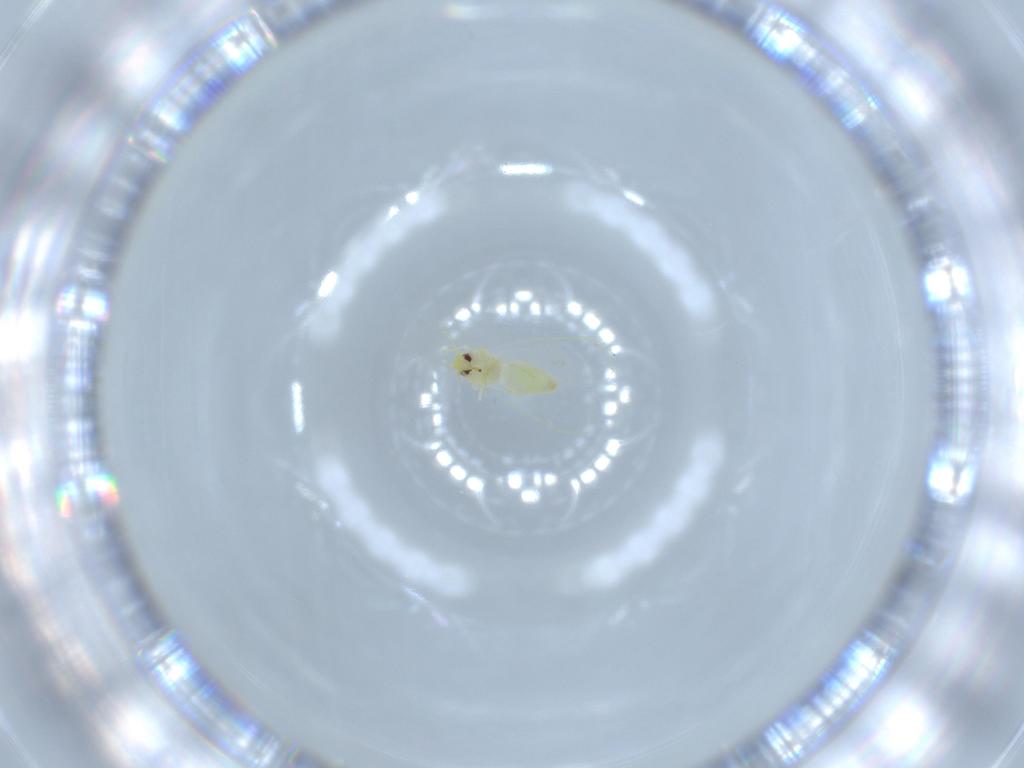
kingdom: Animalia
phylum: Arthropoda
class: Insecta
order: Hemiptera
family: Aleyrodidae
